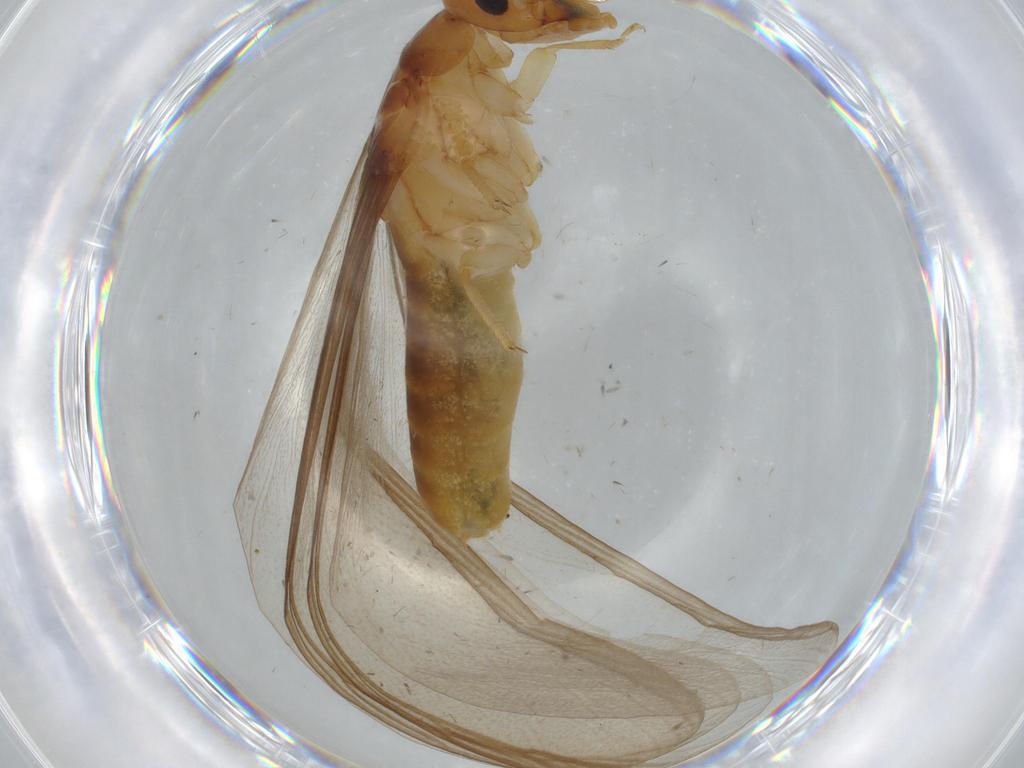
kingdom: Animalia
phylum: Arthropoda
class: Insecta
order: Blattodea
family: Kalotermitidae
